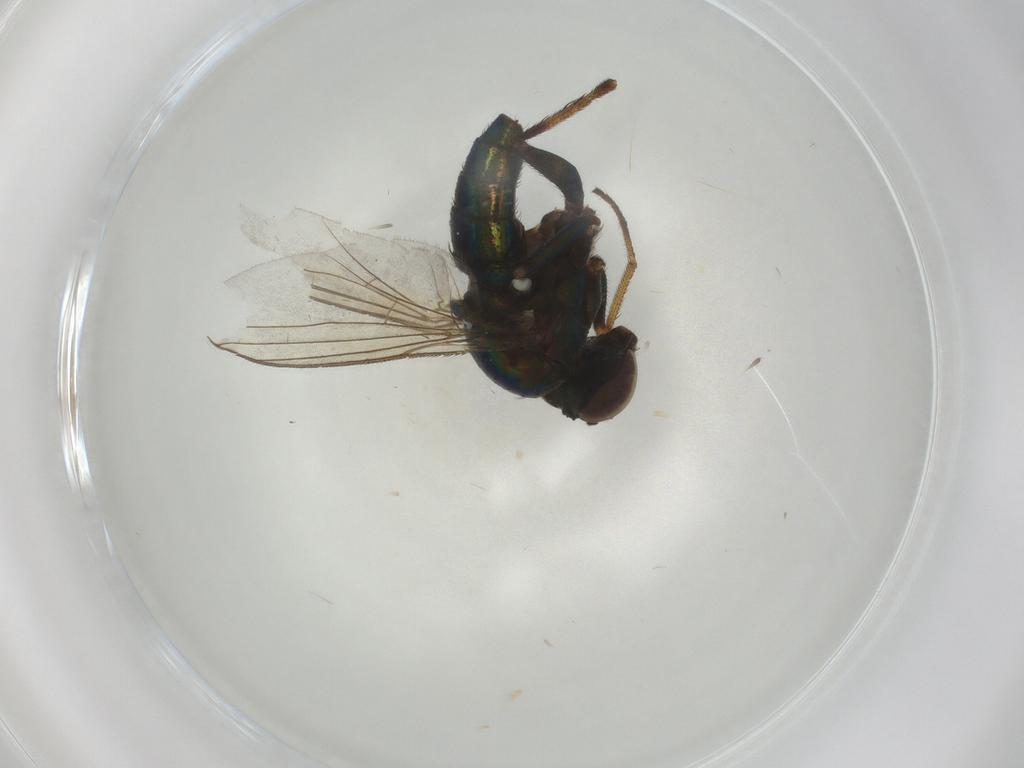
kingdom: Animalia
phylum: Arthropoda
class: Insecta
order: Diptera
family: Dolichopodidae
